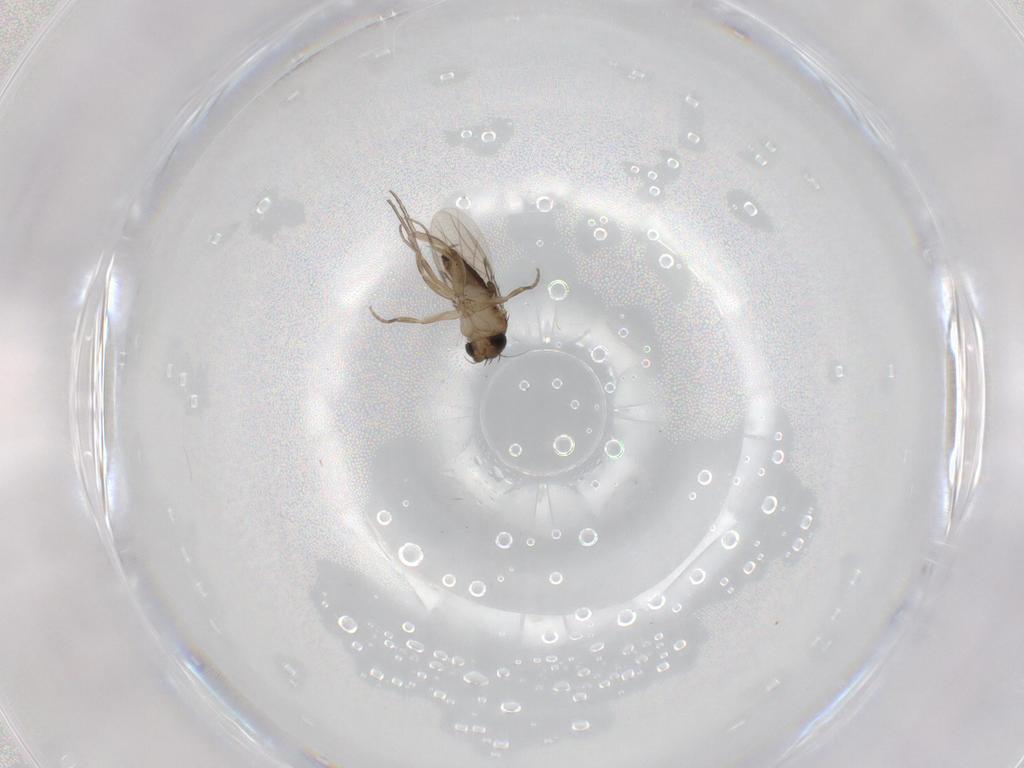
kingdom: Animalia
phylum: Arthropoda
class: Insecta
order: Diptera
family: Phoridae
